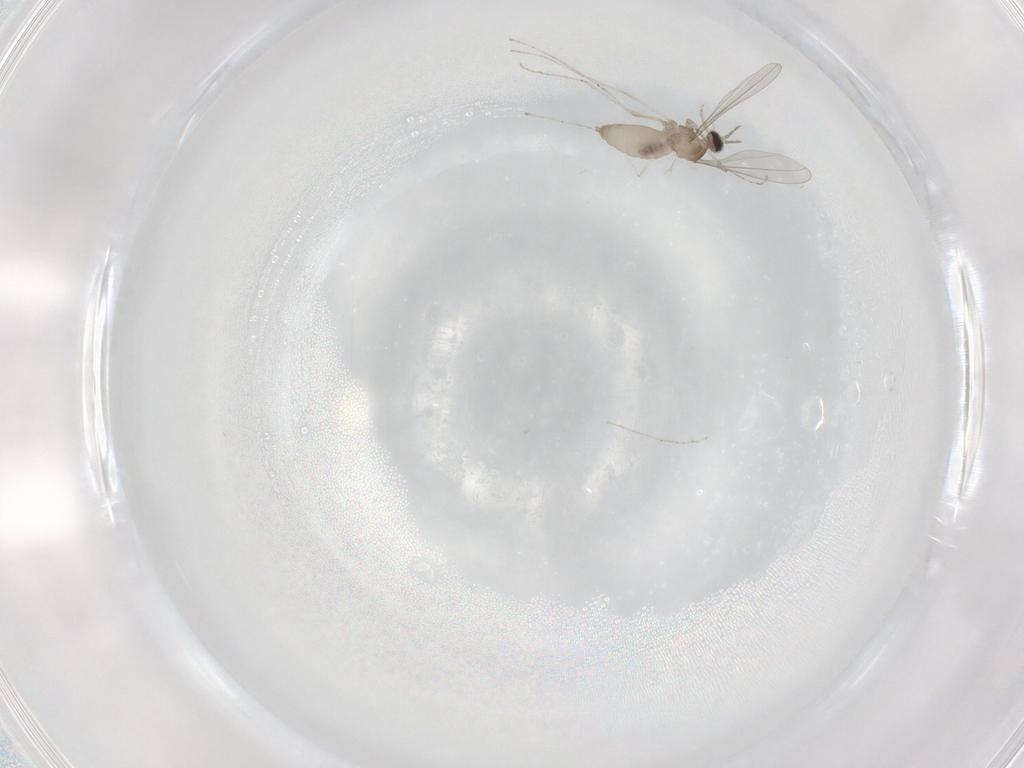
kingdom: Animalia
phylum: Arthropoda
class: Insecta
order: Diptera
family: Cecidomyiidae
